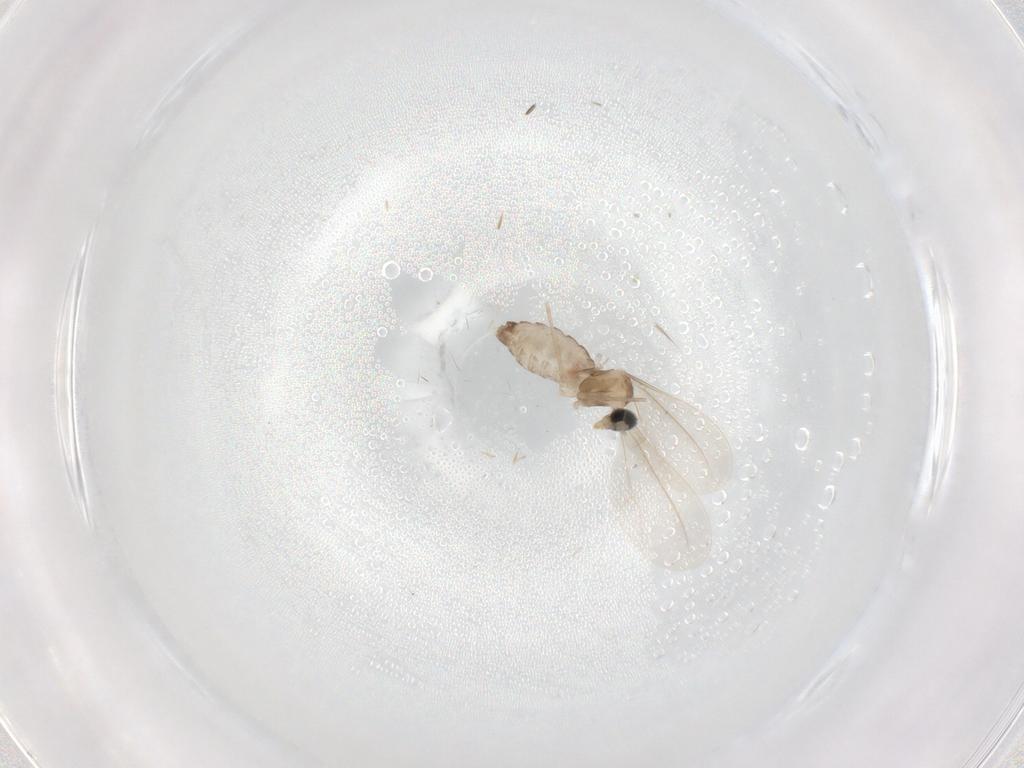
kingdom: Animalia
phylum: Arthropoda
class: Insecta
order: Diptera
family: Cecidomyiidae
